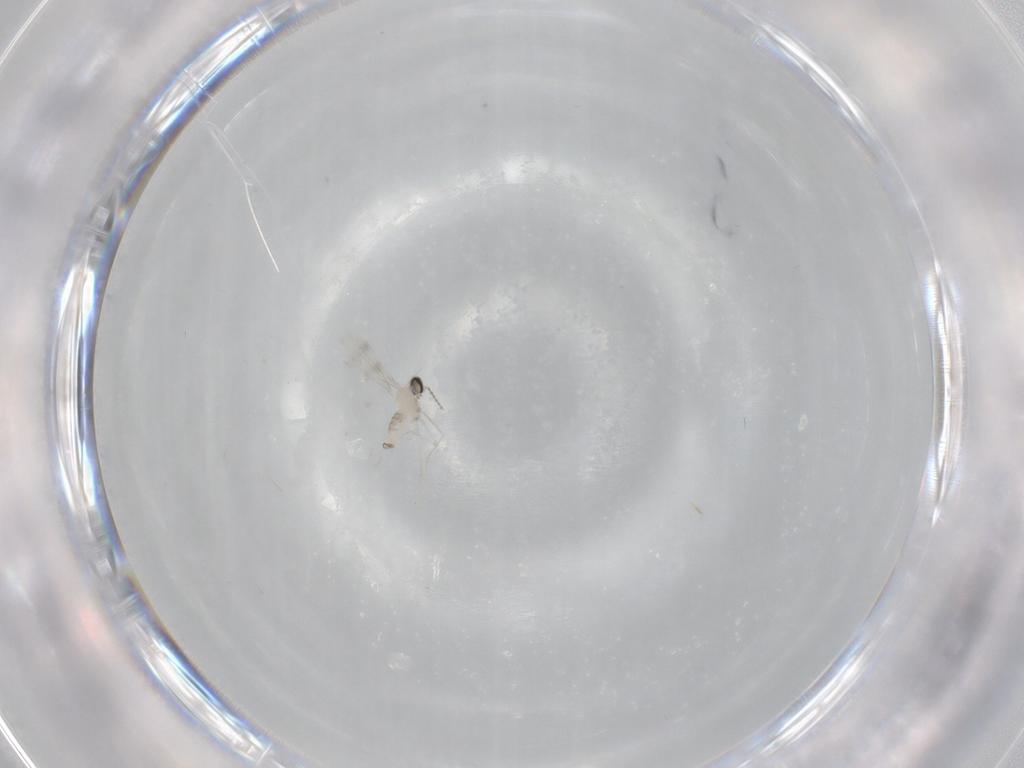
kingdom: Animalia
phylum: Arthropoda
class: Insecta
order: Diptera
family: Cecidomyiidae
